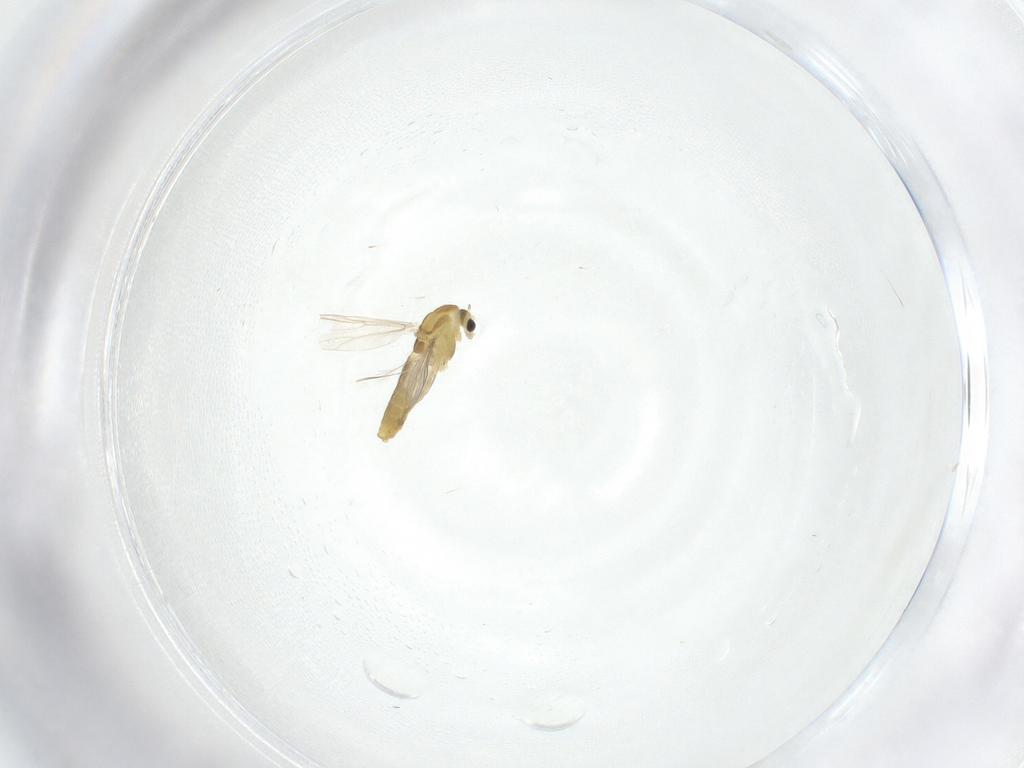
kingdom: Animalia
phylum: Arthropoda
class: Insecta
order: Diptera
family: Chironomidae
